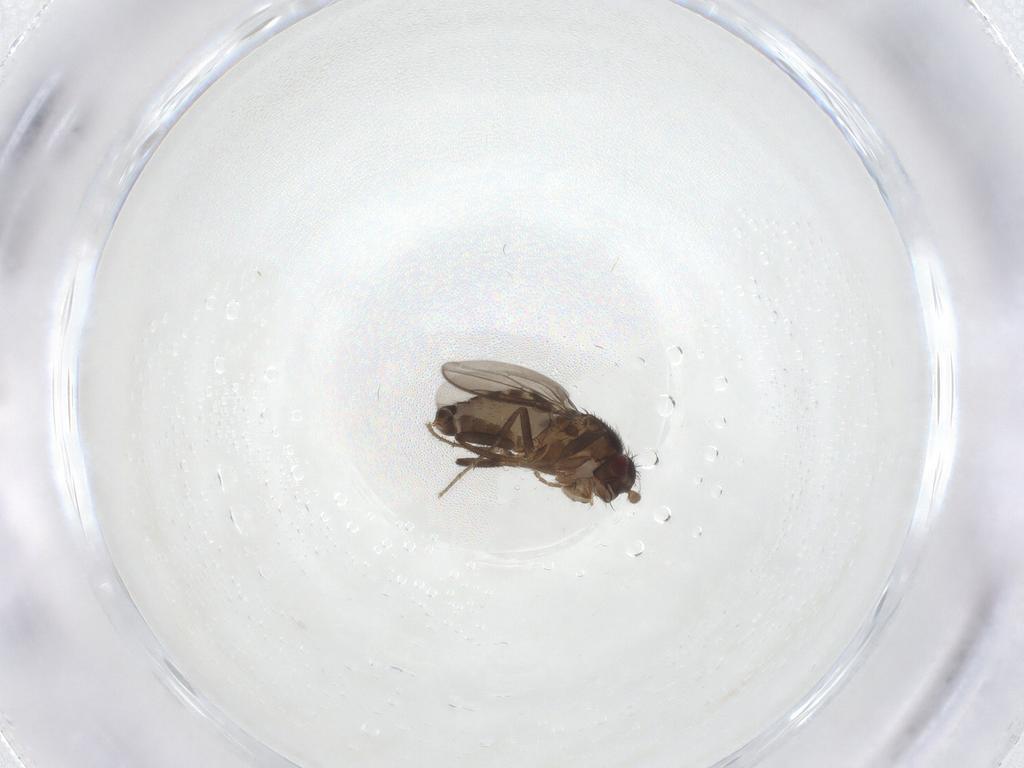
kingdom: Animalia
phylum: Arthropoda
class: Insecta
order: Diptera
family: Sphaeroceridae
